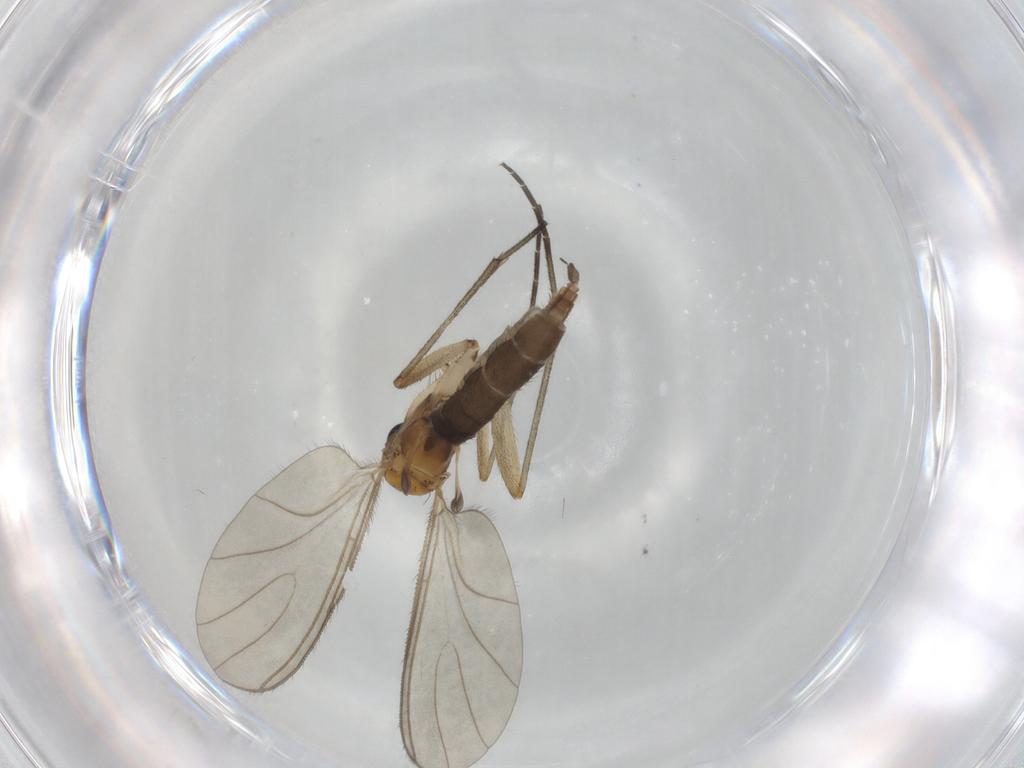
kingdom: Animalia
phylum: Arthropoda
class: Insecta
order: Diptera
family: Sciaridae
